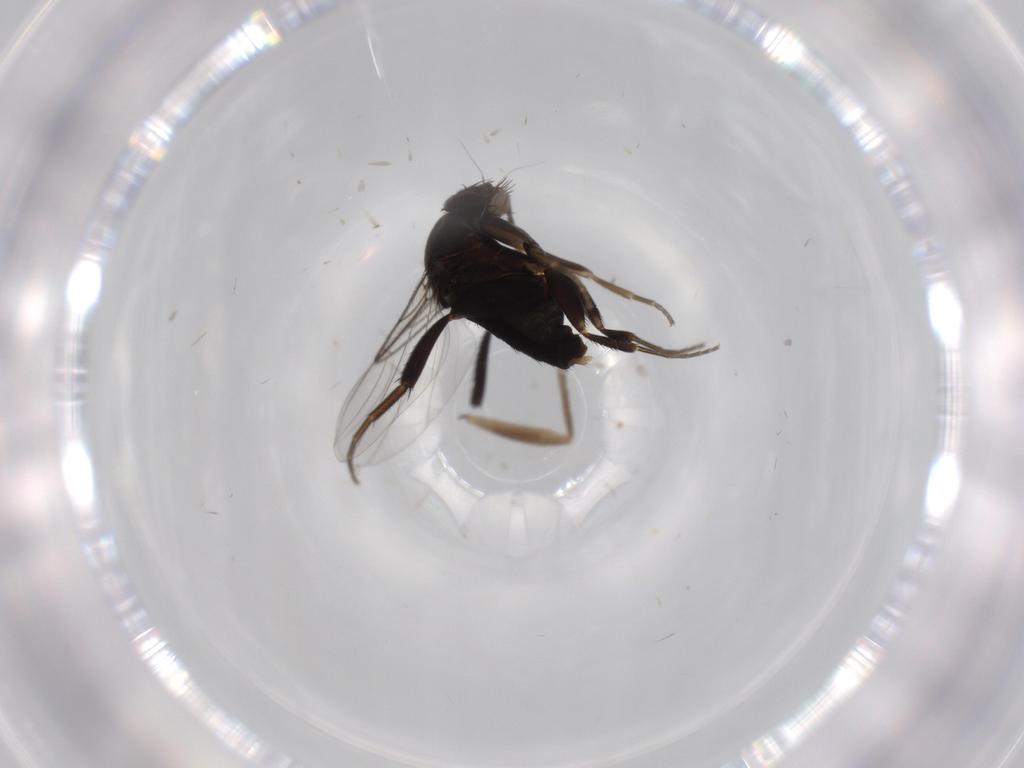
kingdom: Animalia
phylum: Arthropoda
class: Insecta
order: Diptera
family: Phoridae
